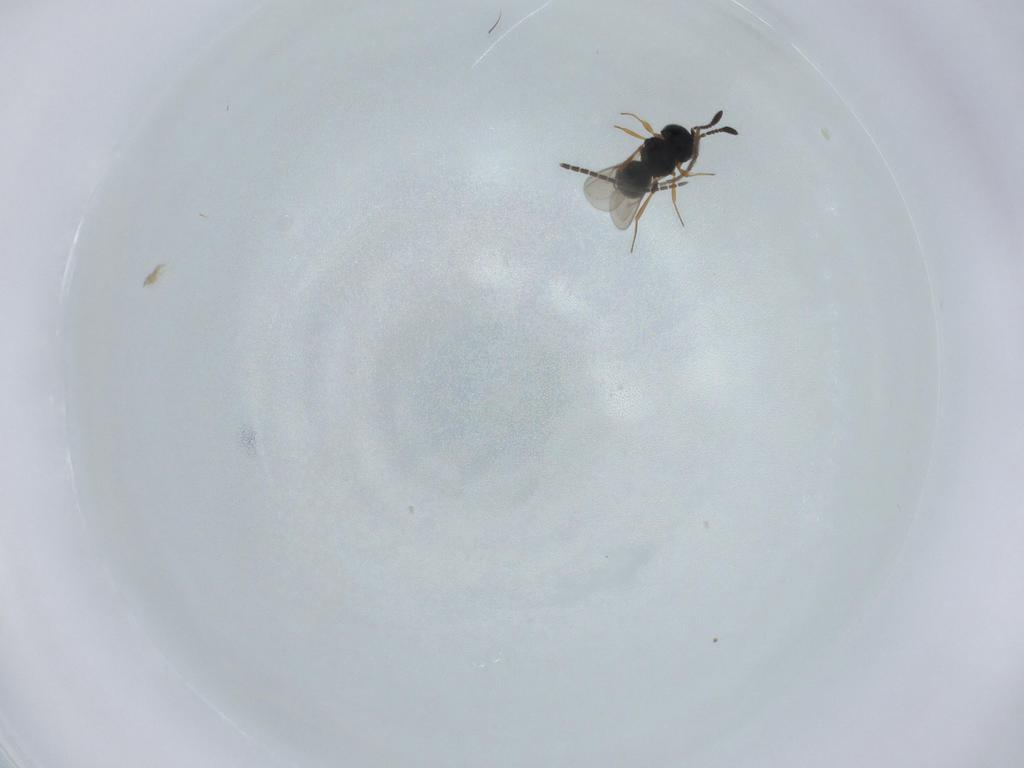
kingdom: Animalia
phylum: Arthropoda
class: Insecta
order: Hymenoptera
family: Scelionidae
